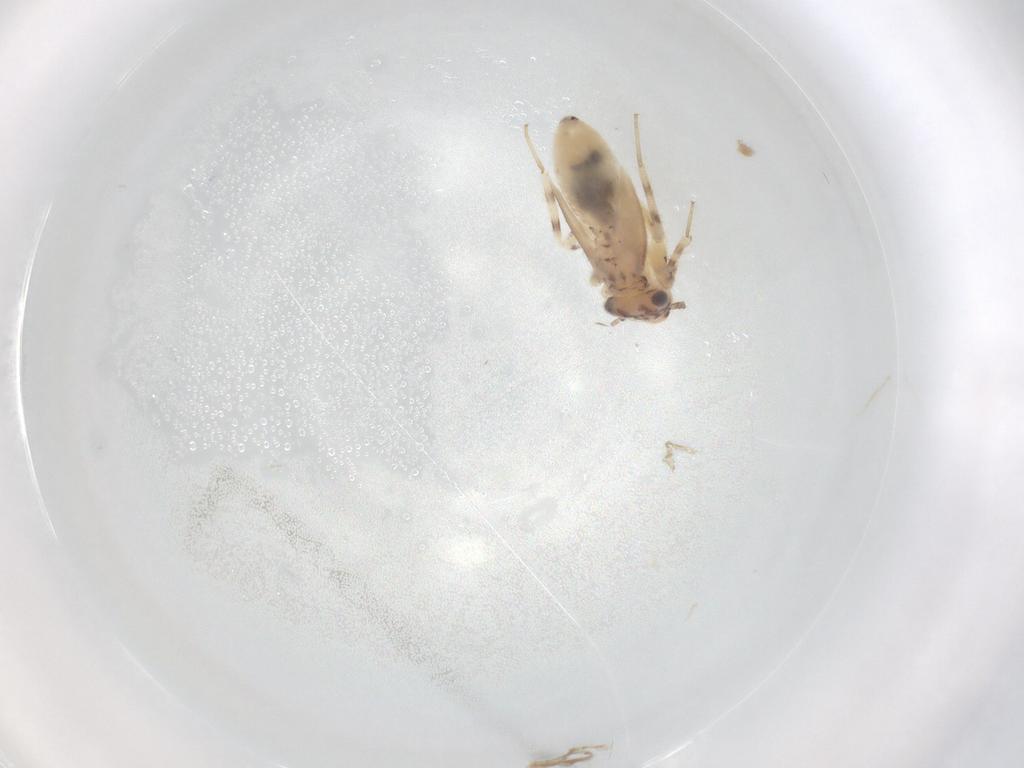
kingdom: Animalia
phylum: Arthropoda
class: Insecta
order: Psocodea
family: Lepidopsocidae
